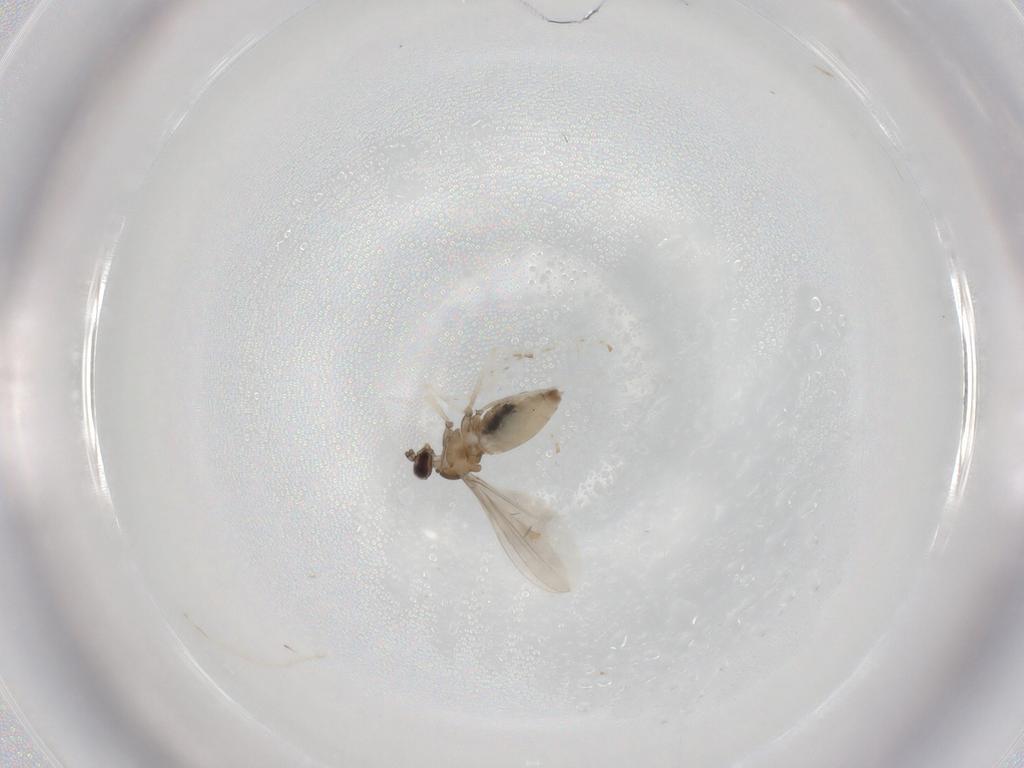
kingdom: Animalia
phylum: Arthropoda
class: Insecta
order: Diptera
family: Cecidomyiidae
